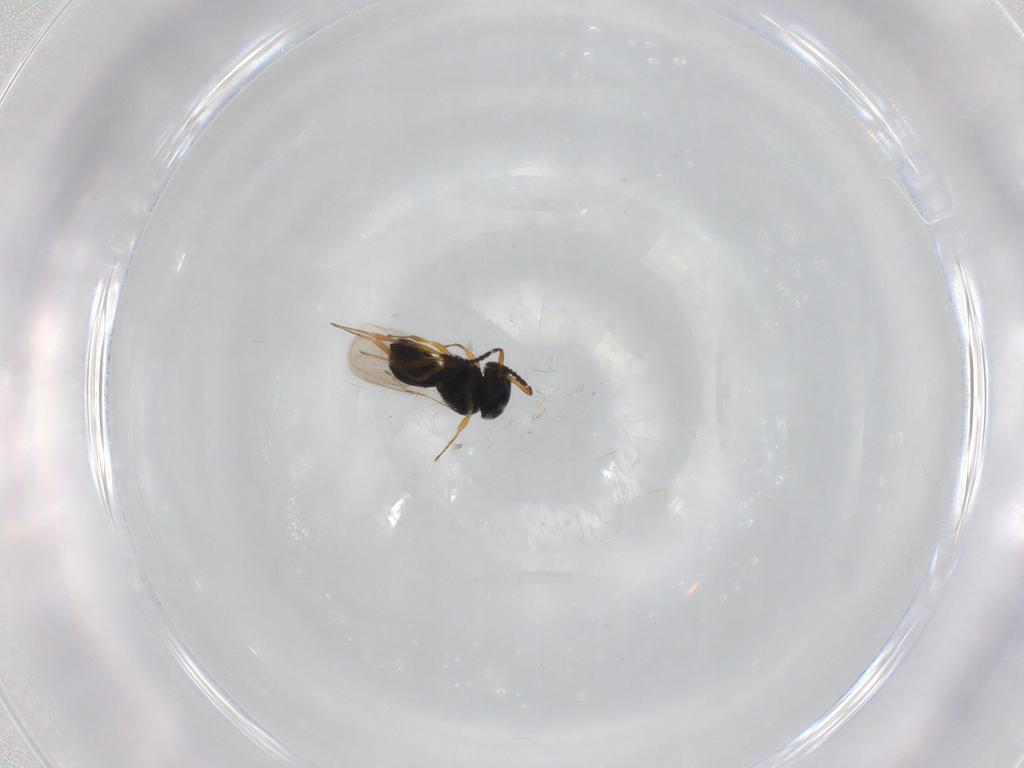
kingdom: Animalia
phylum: Arthropoda
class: Insecta
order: Hymenoptera
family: Scelionidae
